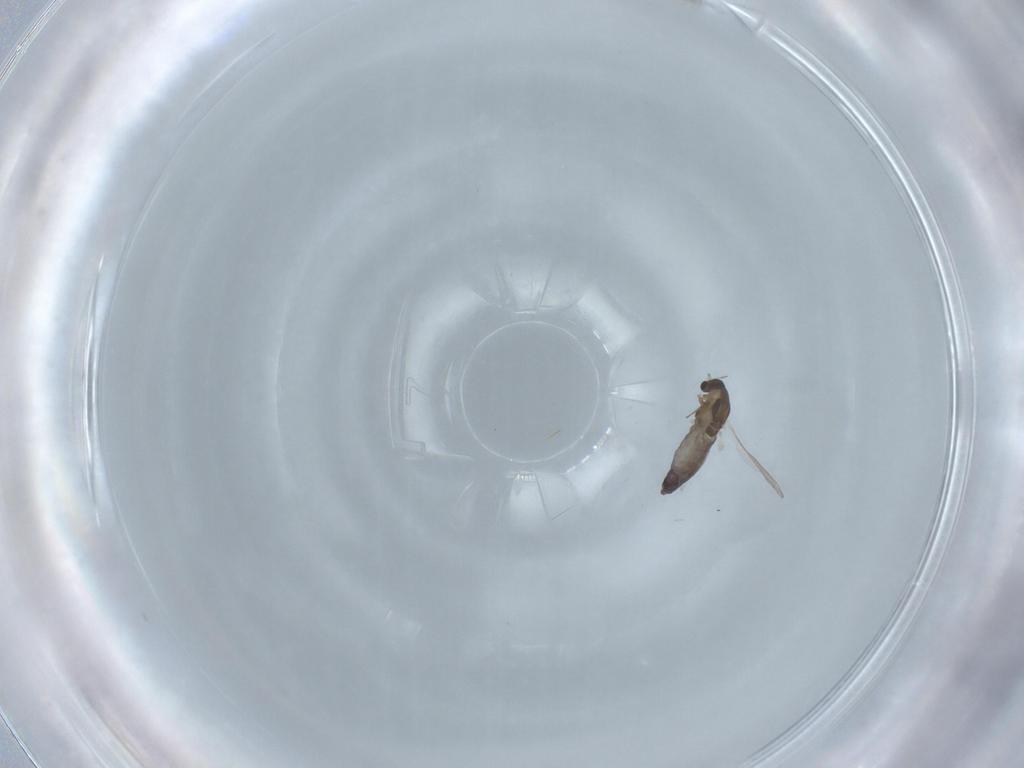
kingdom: Animalia
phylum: Arthropoda
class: Insecta
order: Diptera
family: Chironomidae
